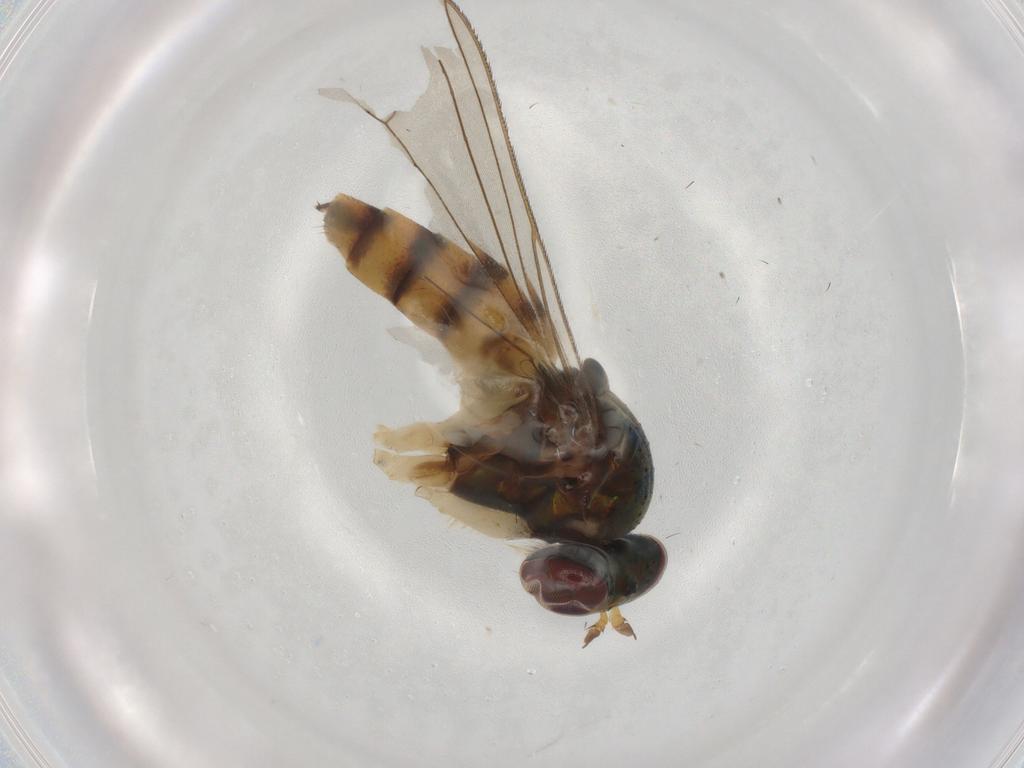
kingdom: Animalia
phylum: Arthropoda
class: Insecta
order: Diptera
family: Dolichopodidae
